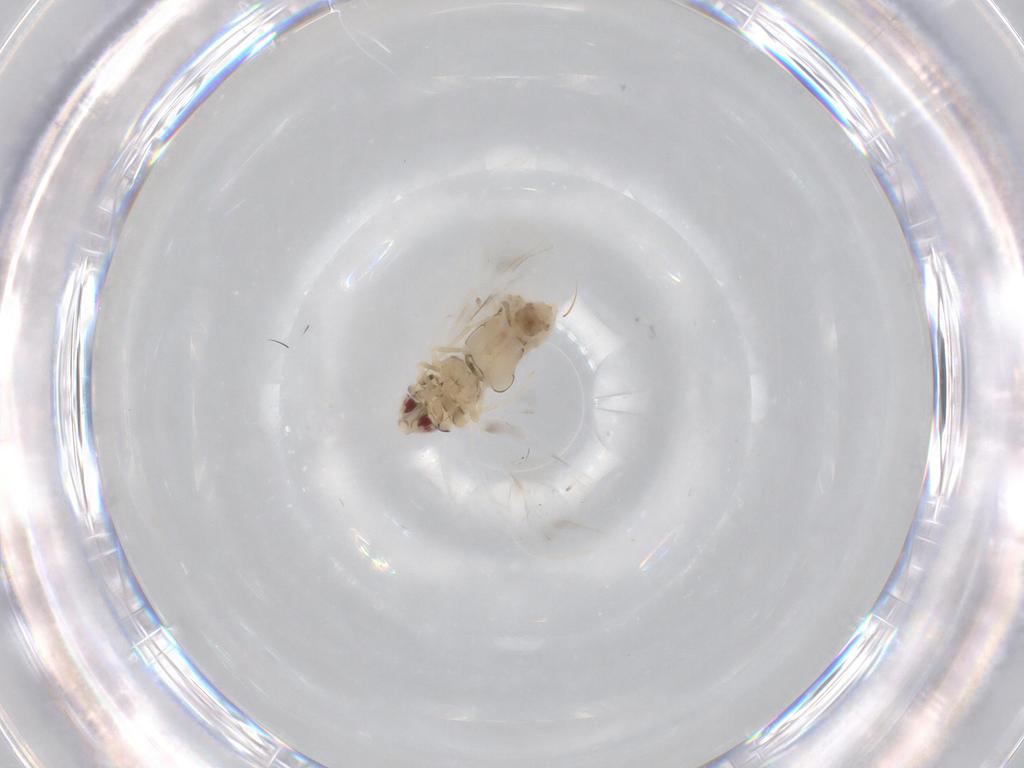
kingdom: Animalia
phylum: Arthropoda
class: Insecta
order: Hemiptera
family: Aleyrodidae
